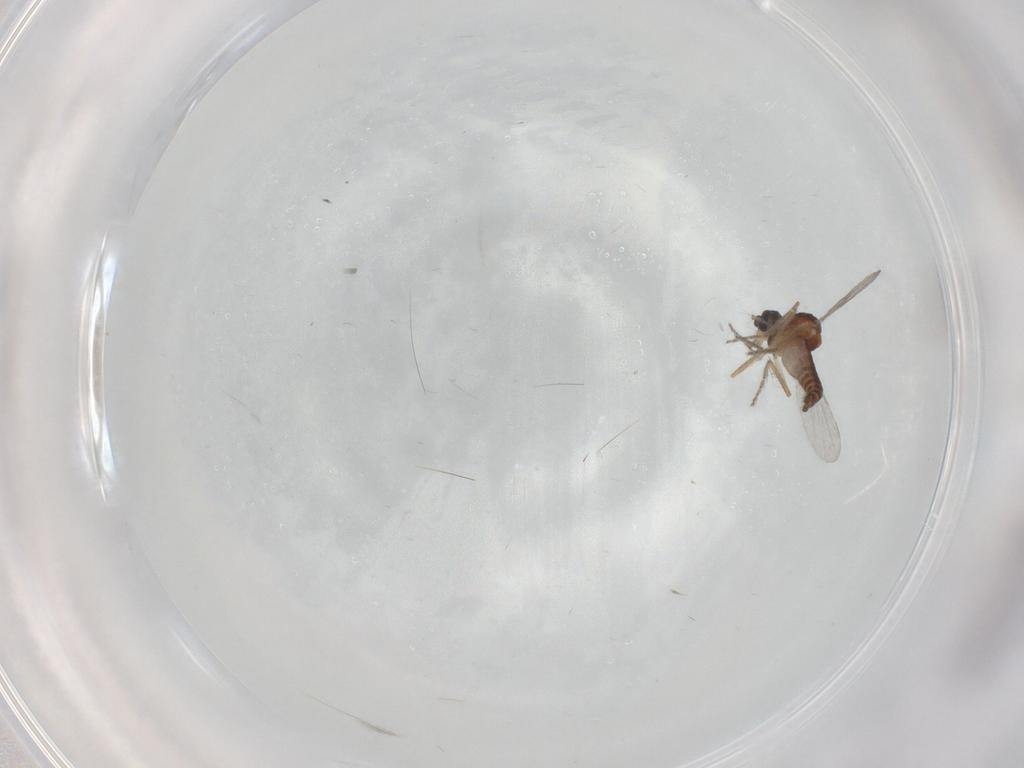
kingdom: Animalia
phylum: Arthropoda
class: Insecta
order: Diptera
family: Ceratopogonidae
